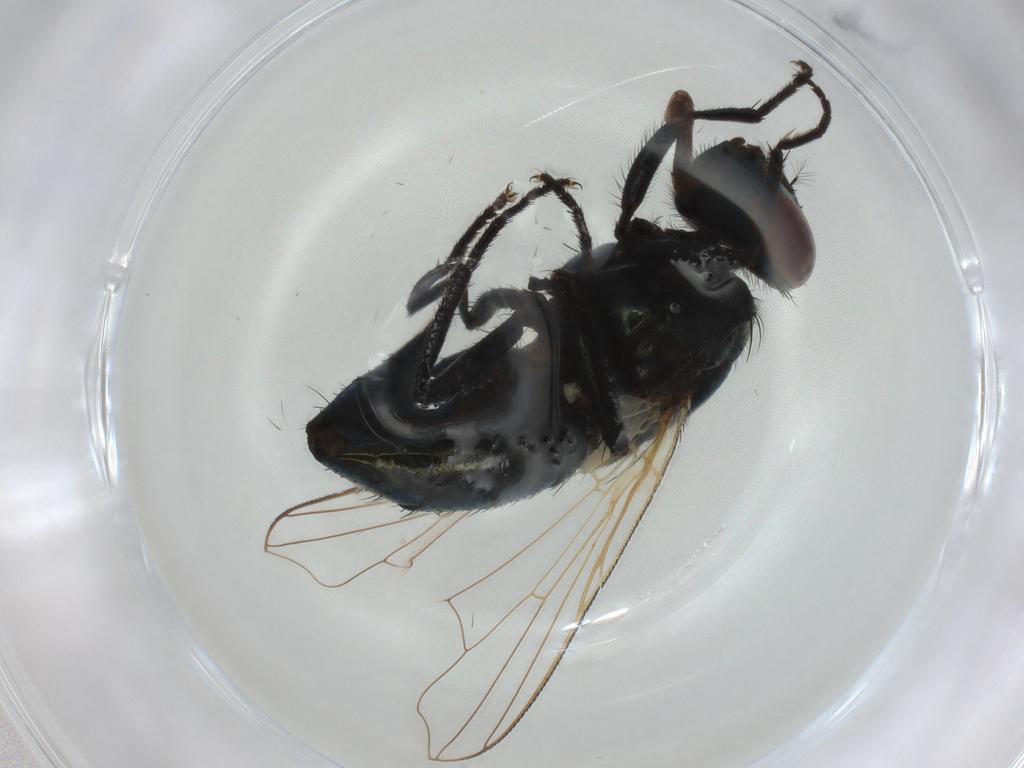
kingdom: Animalia
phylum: Arthropoda
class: Insecta
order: Diptera
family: Muscidae
